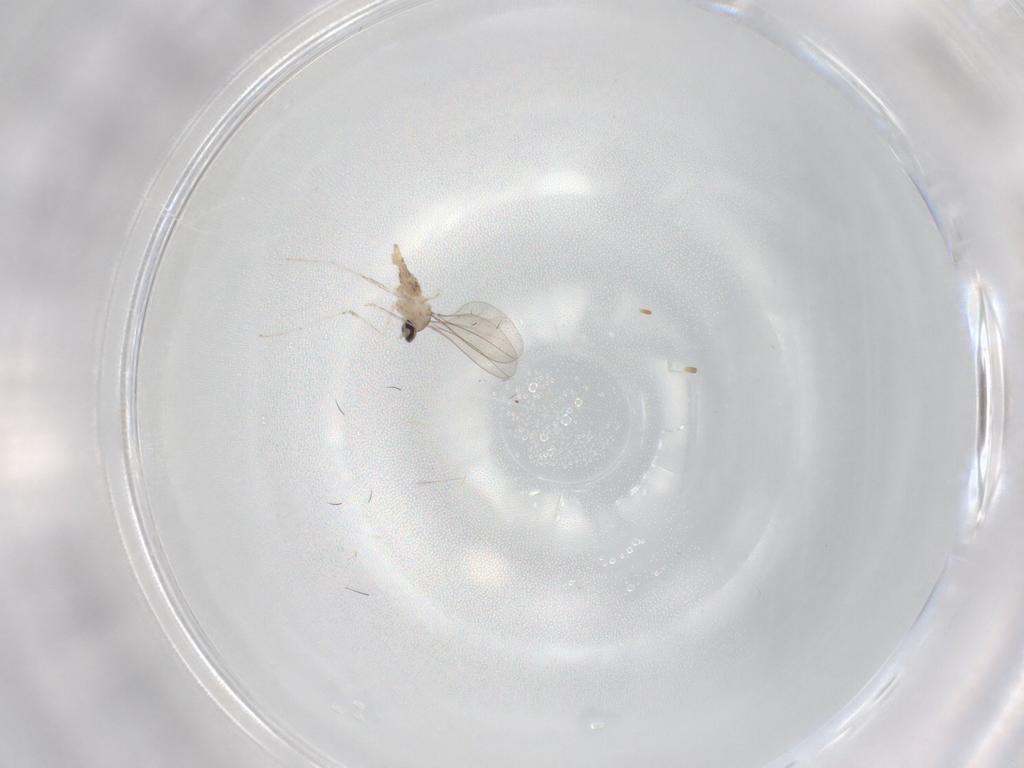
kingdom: Animalia
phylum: Arthropoda
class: Insecta
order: Diptera
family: Cecidomyiidae
